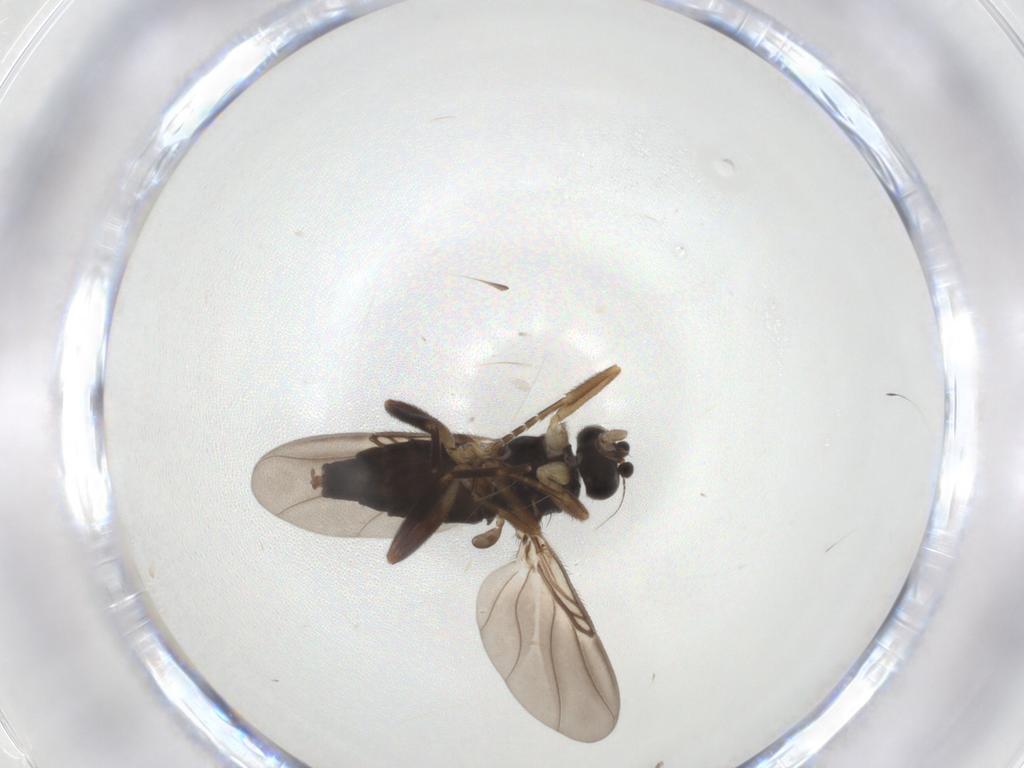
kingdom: Animalia
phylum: Arthropoda
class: Insecta
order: Diptera
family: Phoridae
